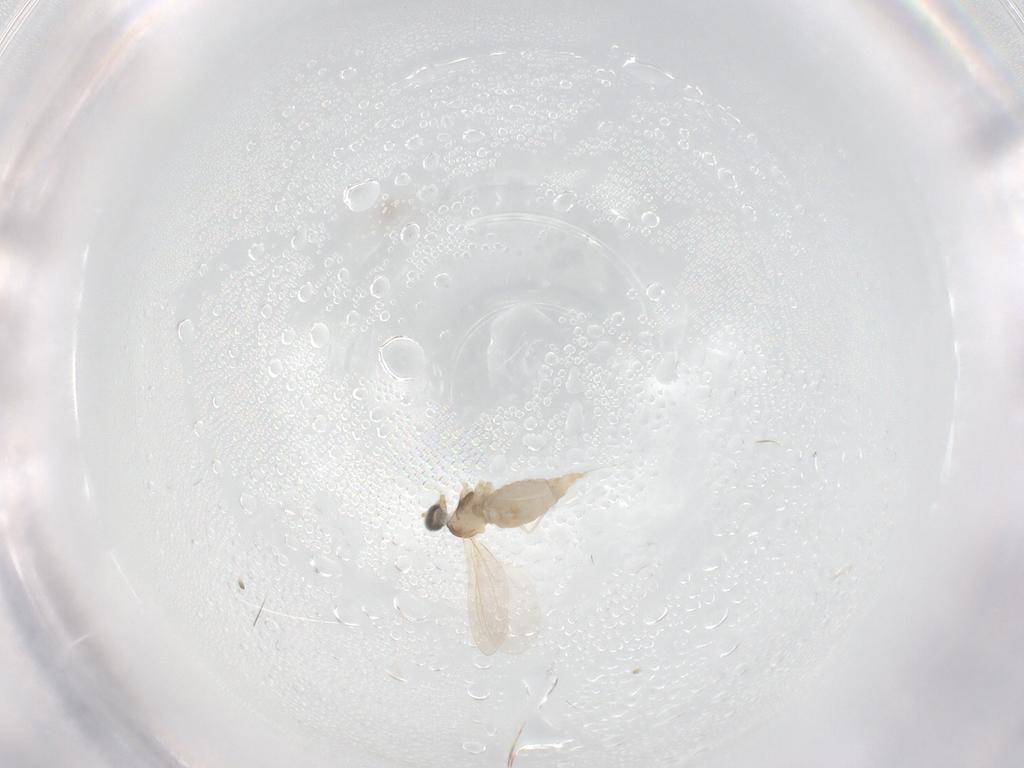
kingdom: Animalia
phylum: Arthropoda
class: Insecta
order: Diptera
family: Cecidomyiidae
